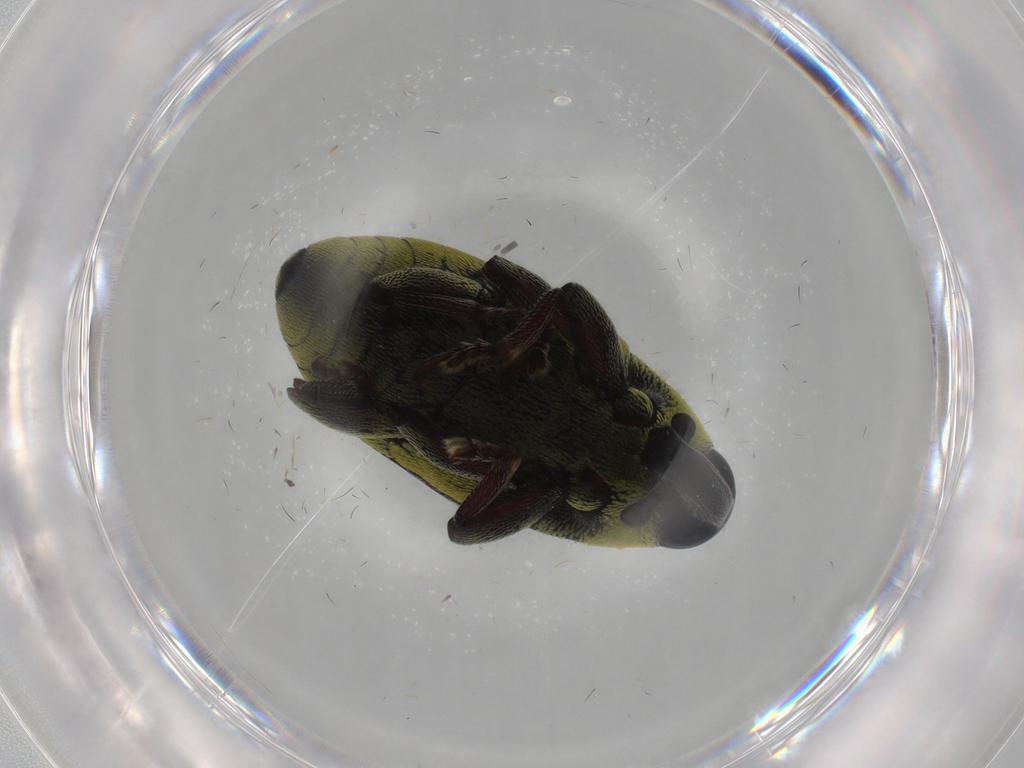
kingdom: Animalia
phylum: Arthropoda
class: Insecta
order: Coleoptera
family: Curculionidae
